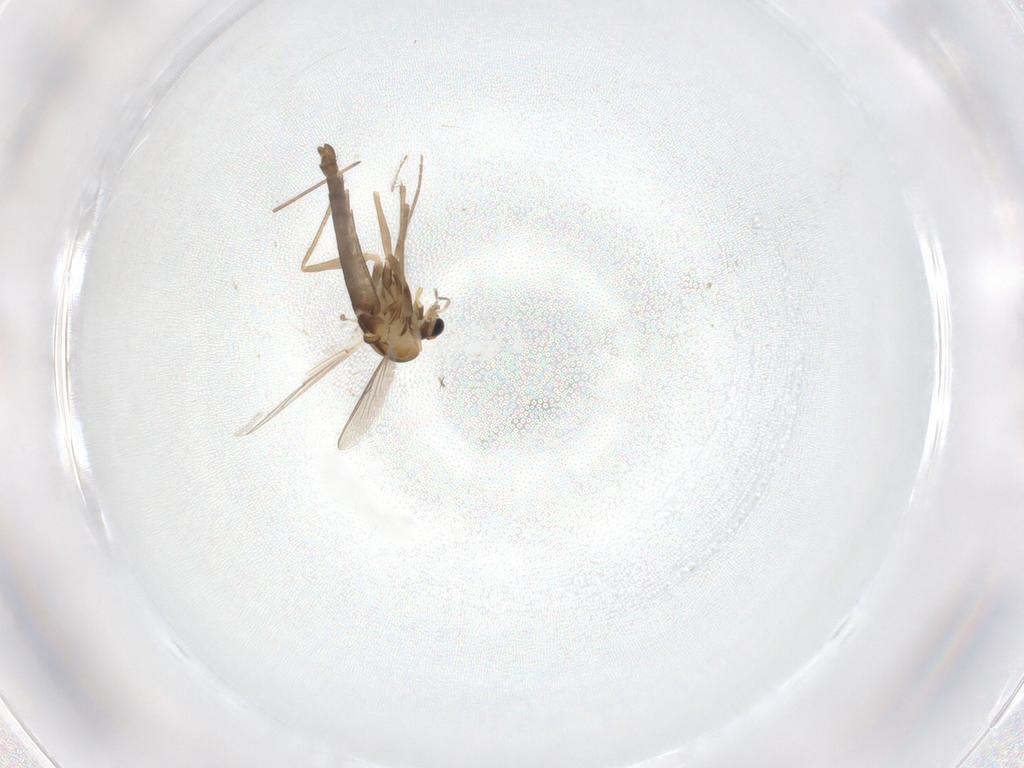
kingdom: Animalia
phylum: Arthropoda
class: Insecta
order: Diptera
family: Chironomidae
